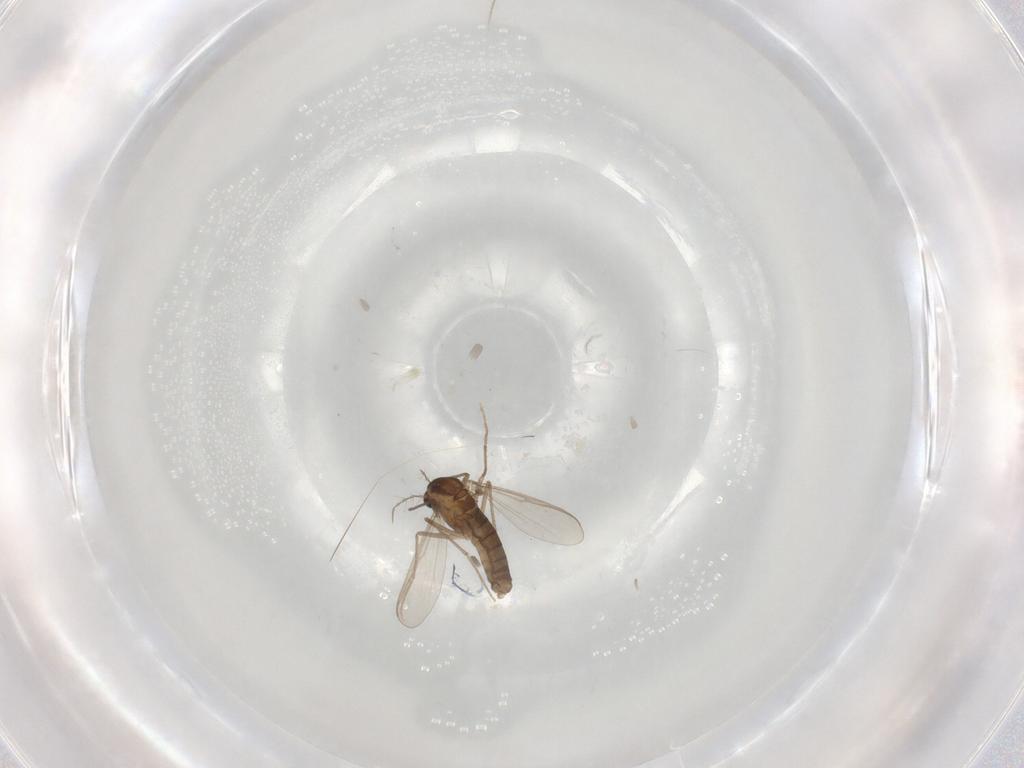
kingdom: Animalia
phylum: Arthropoda
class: Insecta
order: Diptera
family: Mycetophilidae
